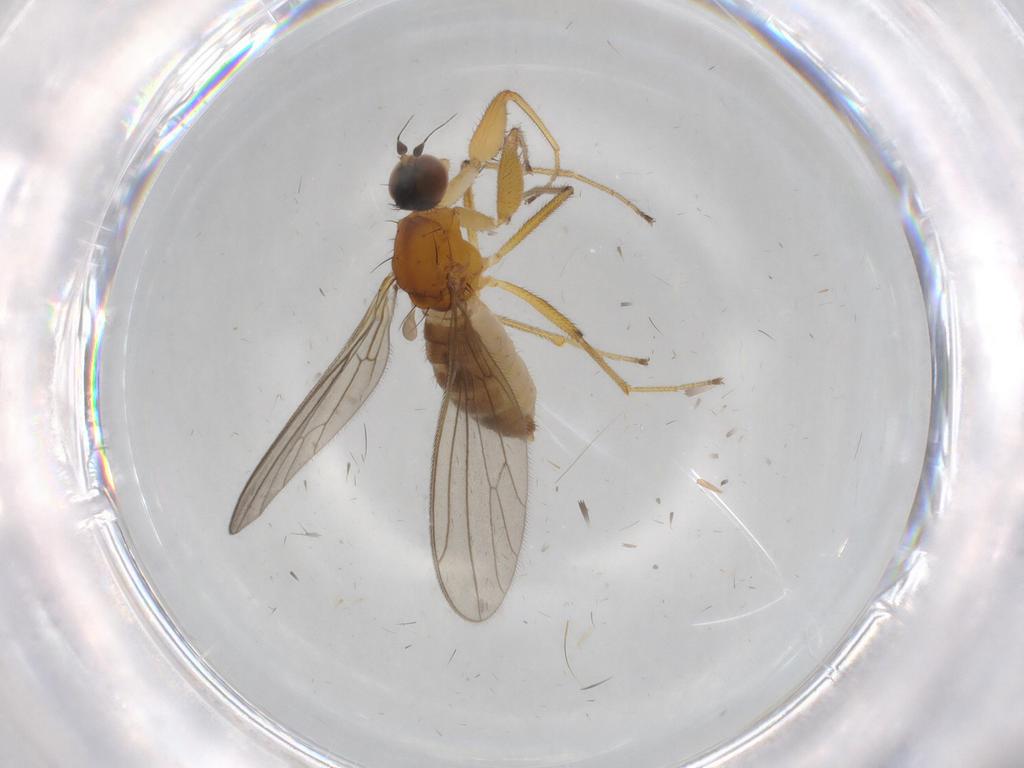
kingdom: Animalia
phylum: Arthropoda
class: Insecta
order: Diptera
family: Empididae
